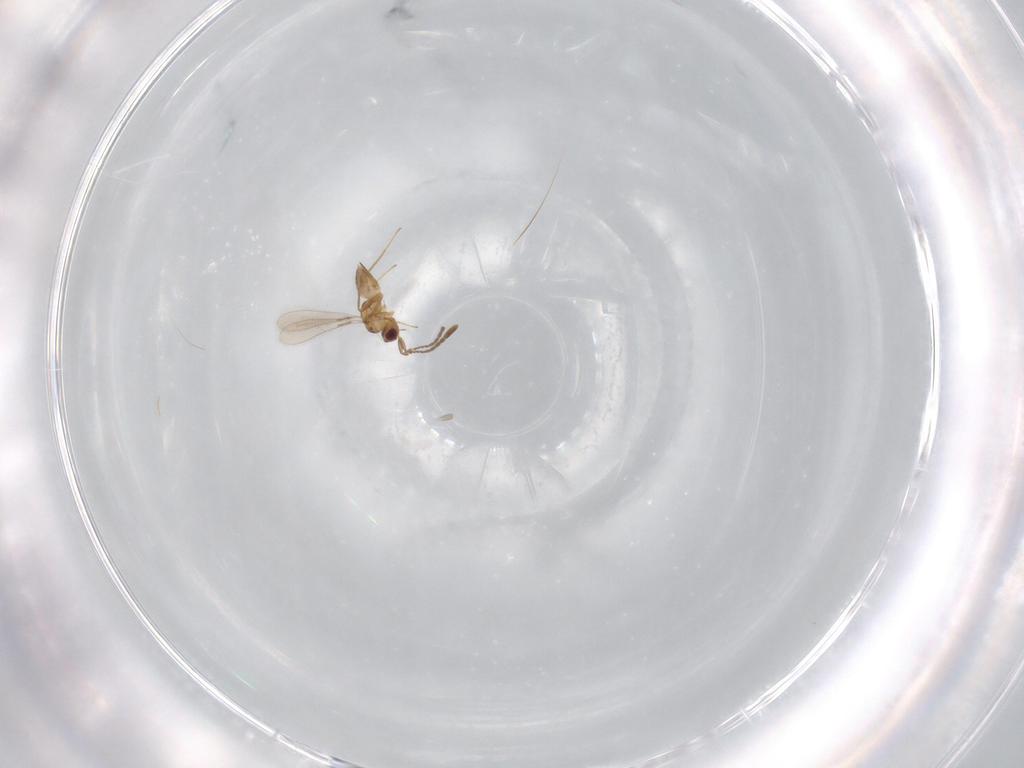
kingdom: Animalia
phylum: Arthropoda
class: Insecta
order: Hymenoptera
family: Mymaridae
